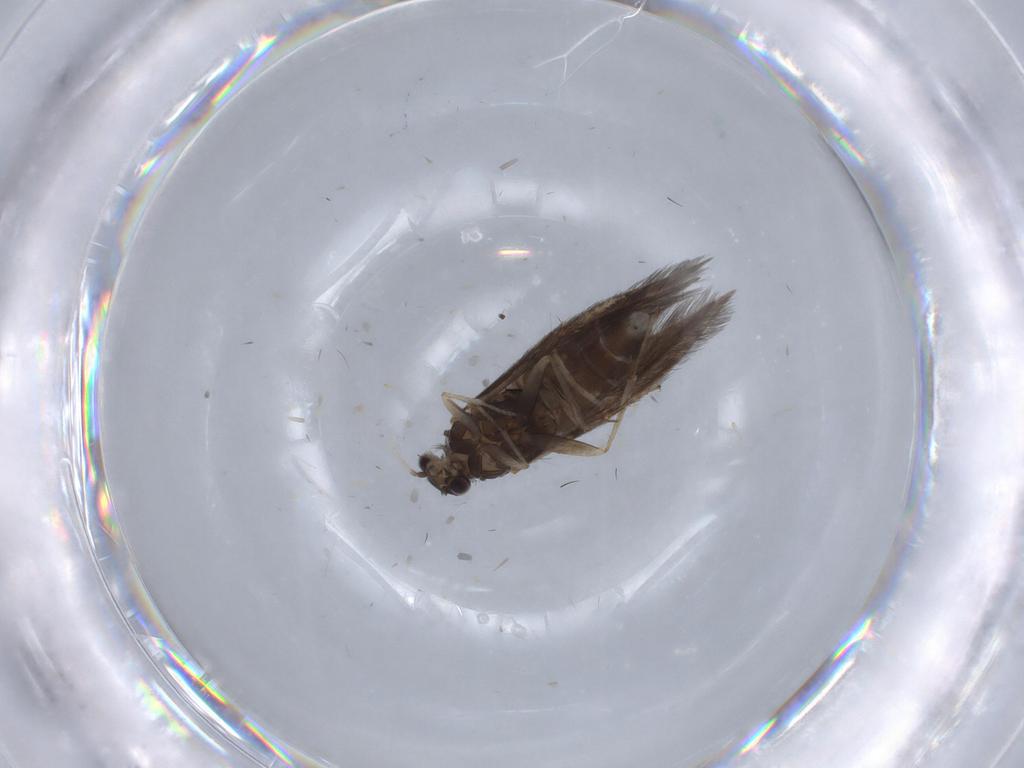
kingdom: Animalia
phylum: Arthropoda
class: Insecta
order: Trichoptera
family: Hydroptilidae
